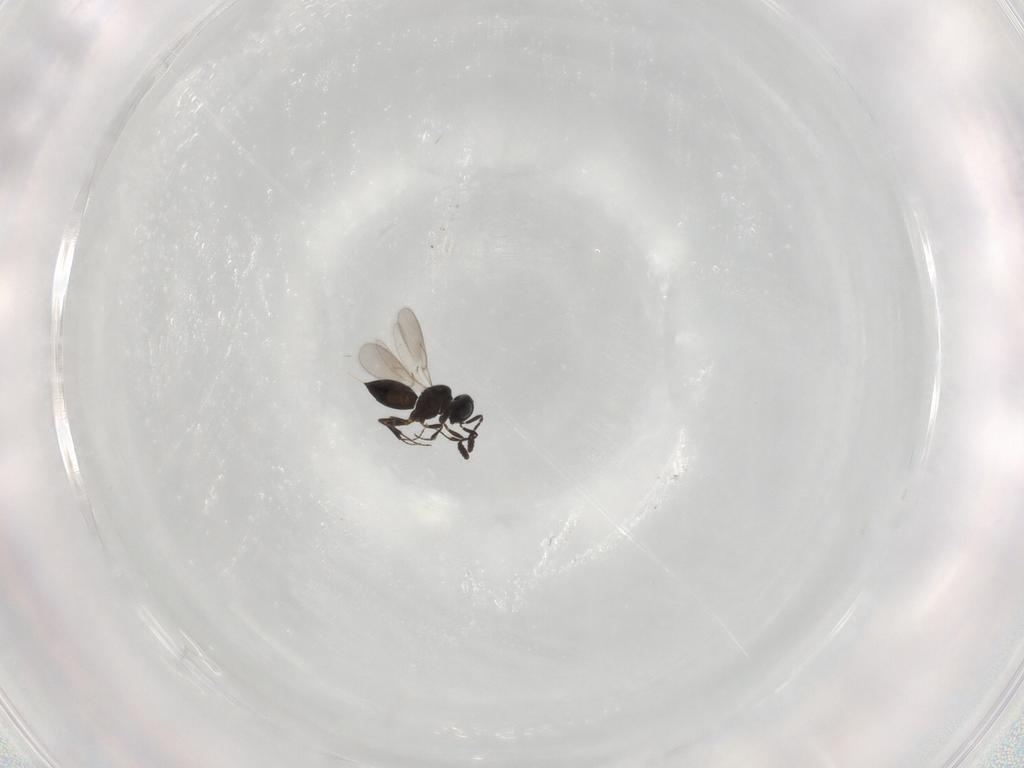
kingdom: Animalia
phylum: Arthropoda
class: Insecta
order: Hymenoptera
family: Scelionidae
